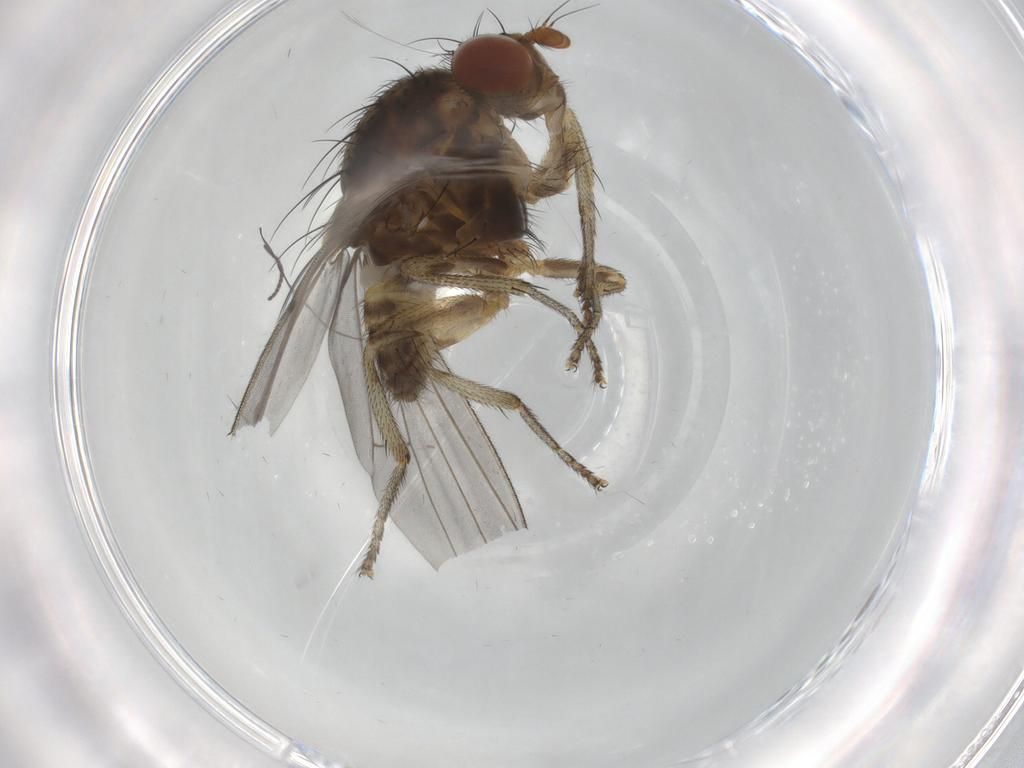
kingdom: Animalia
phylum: Arthropoda
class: Insecta
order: Diptera
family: Lauxaniidae
